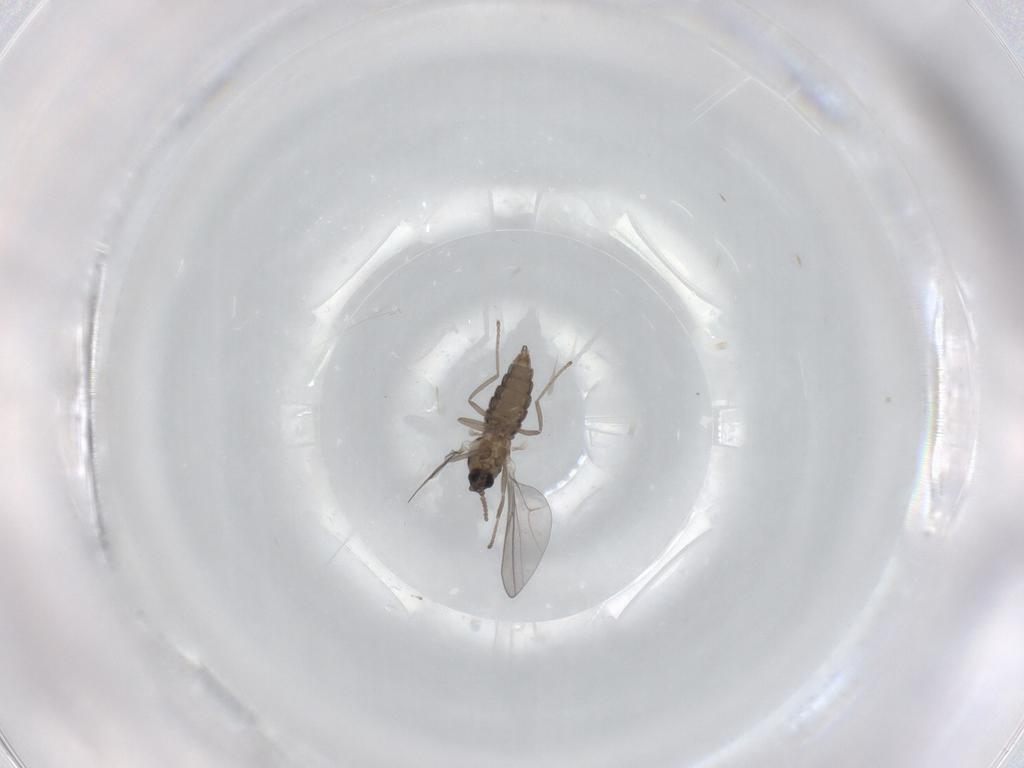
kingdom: Animalia
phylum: Arthropoda
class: Insecta
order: Diptera
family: Cecidomyiidae
